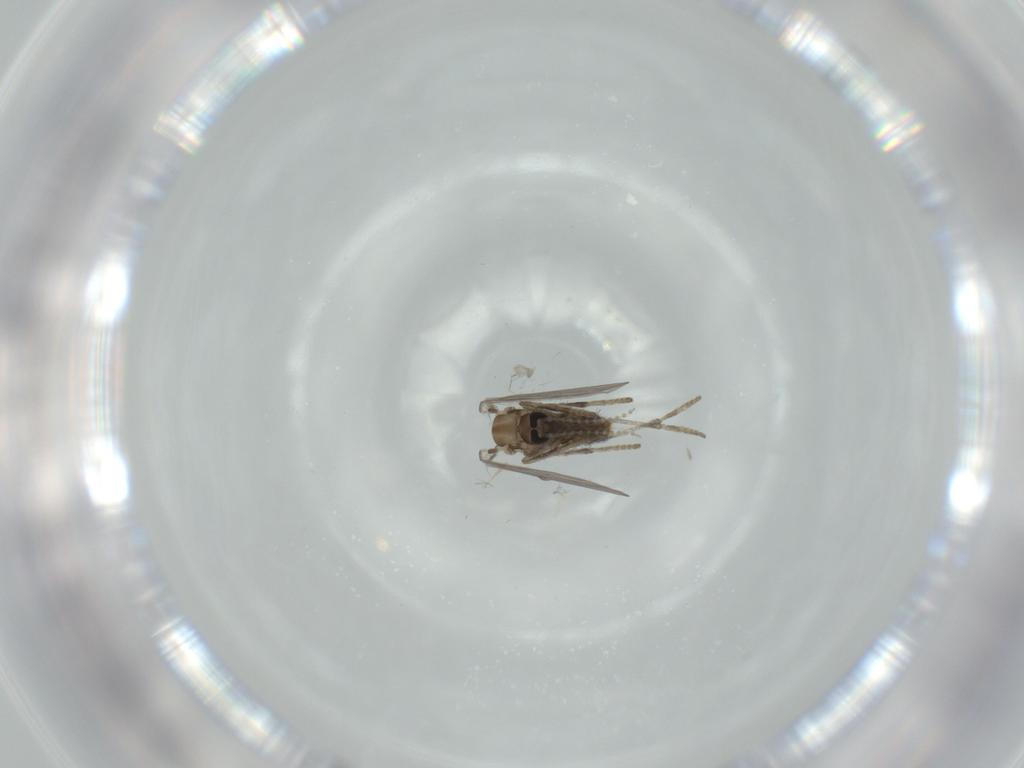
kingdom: Animalia
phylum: Arthropoda
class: Insecta
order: Diptera
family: Psychodidae
